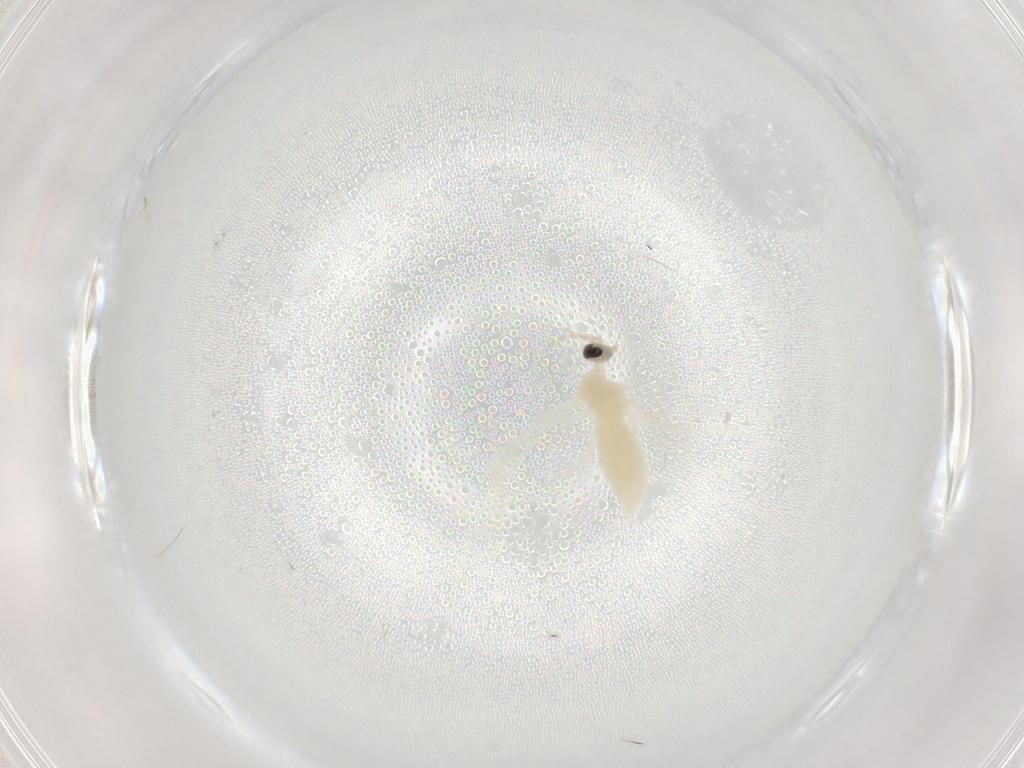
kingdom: Animalia
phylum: Arthropoda
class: Insecta
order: Diptera
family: Cecidomyiidae
